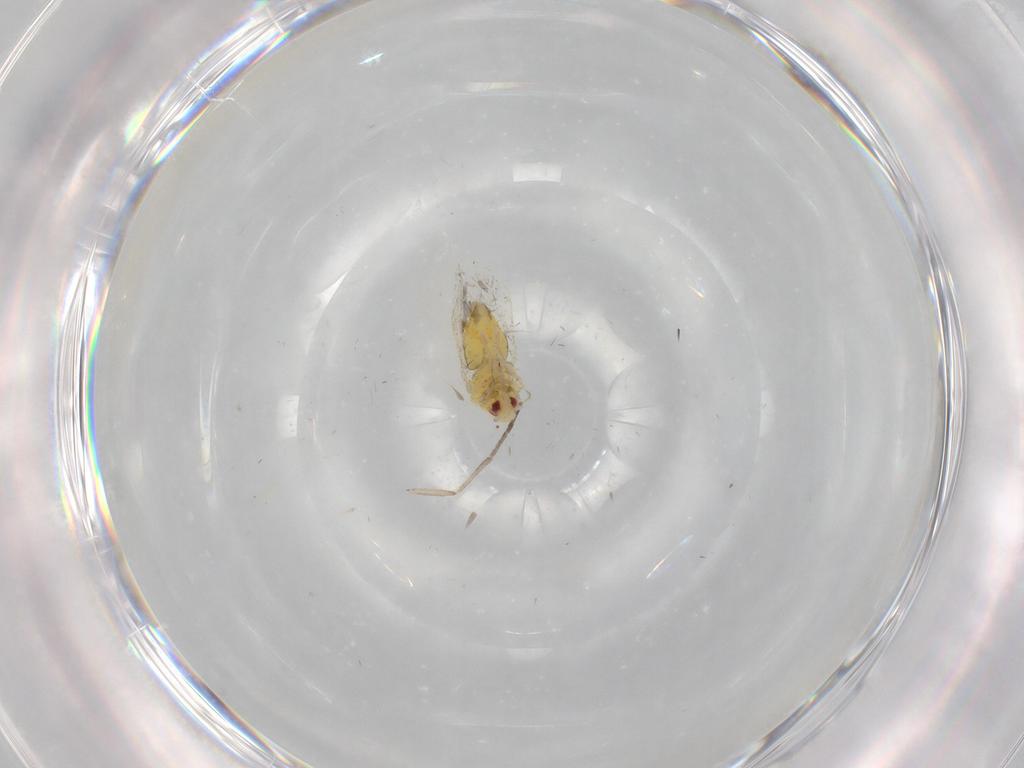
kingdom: Animalia
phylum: Arthropoda
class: Insecta
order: Hemiptera
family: Aleyrodidae
